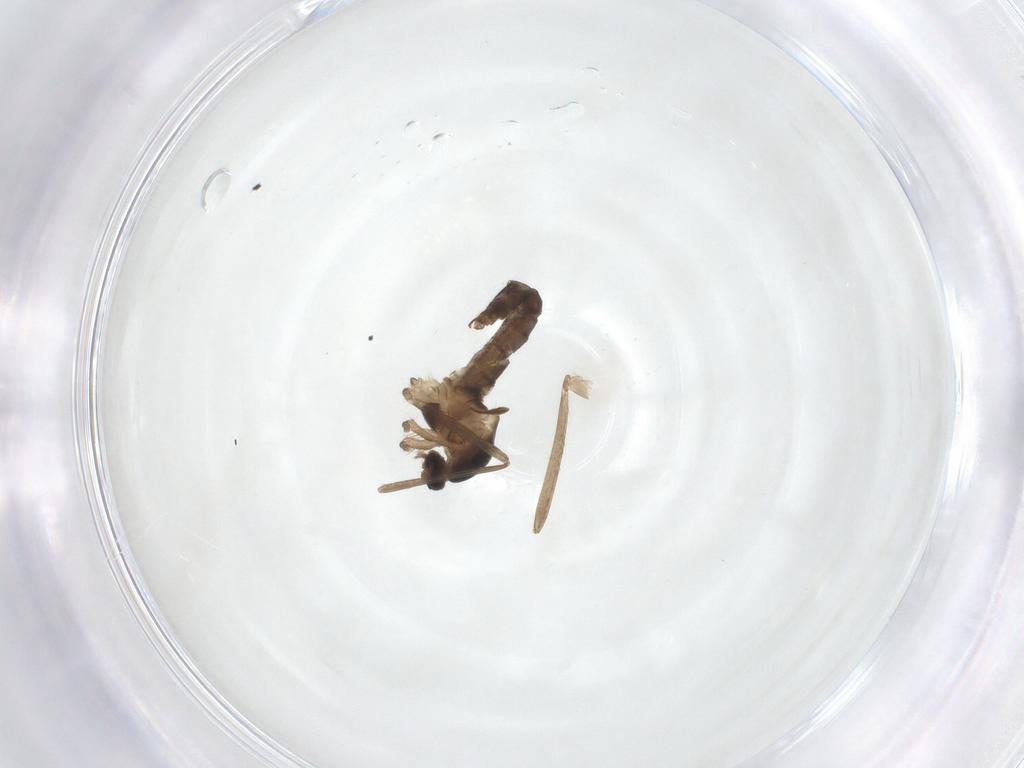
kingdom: Animalia
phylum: Arthropoda
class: Insecta
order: Diptera
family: Cecidomyiidae
